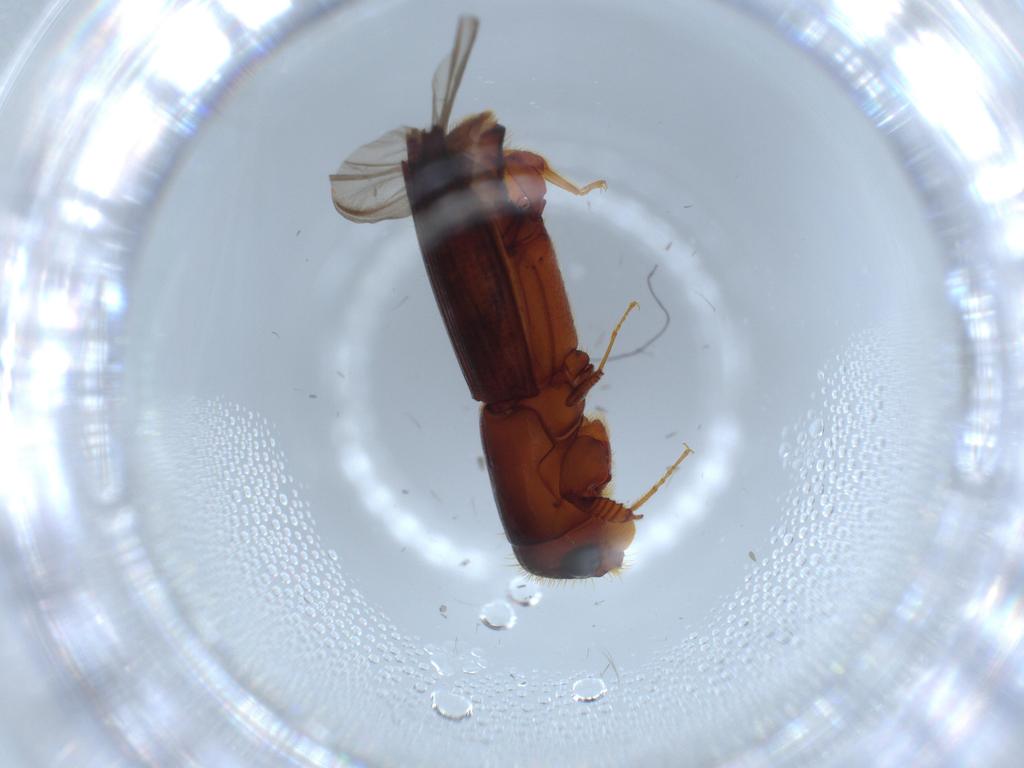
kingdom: Animalia
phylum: Arthropoda
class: Insecta
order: Coleoptera
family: Curculionidae
